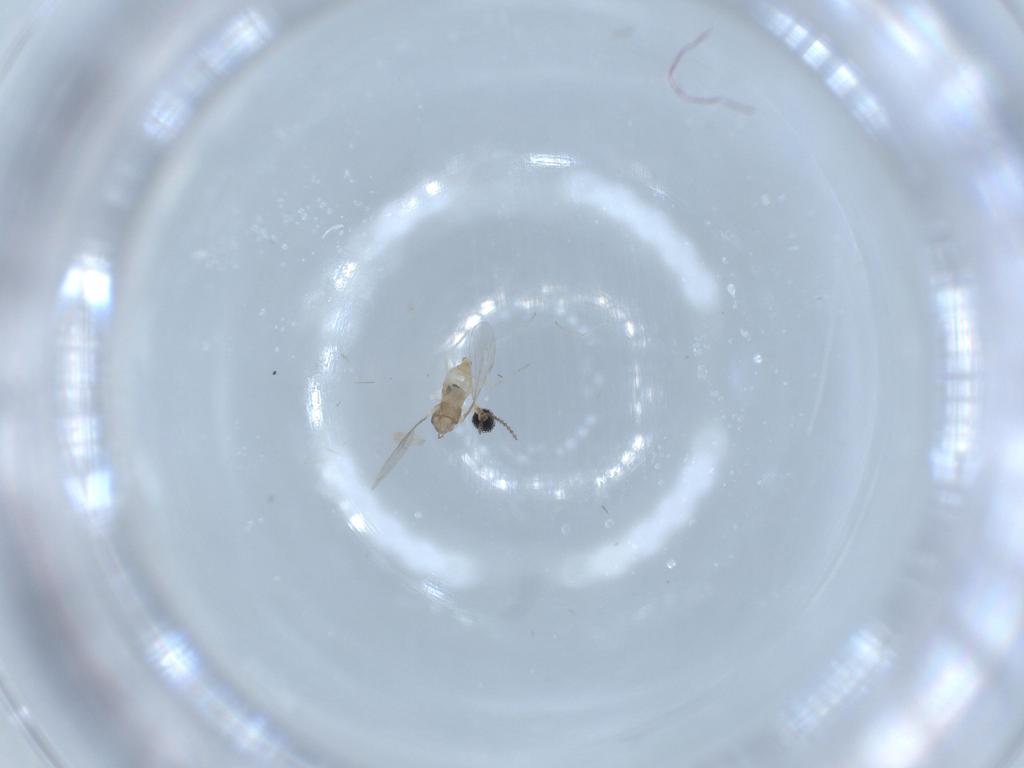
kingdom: Animalia
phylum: Arthropoda
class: Insecta
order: Diptera
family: Cecidomyiidae
